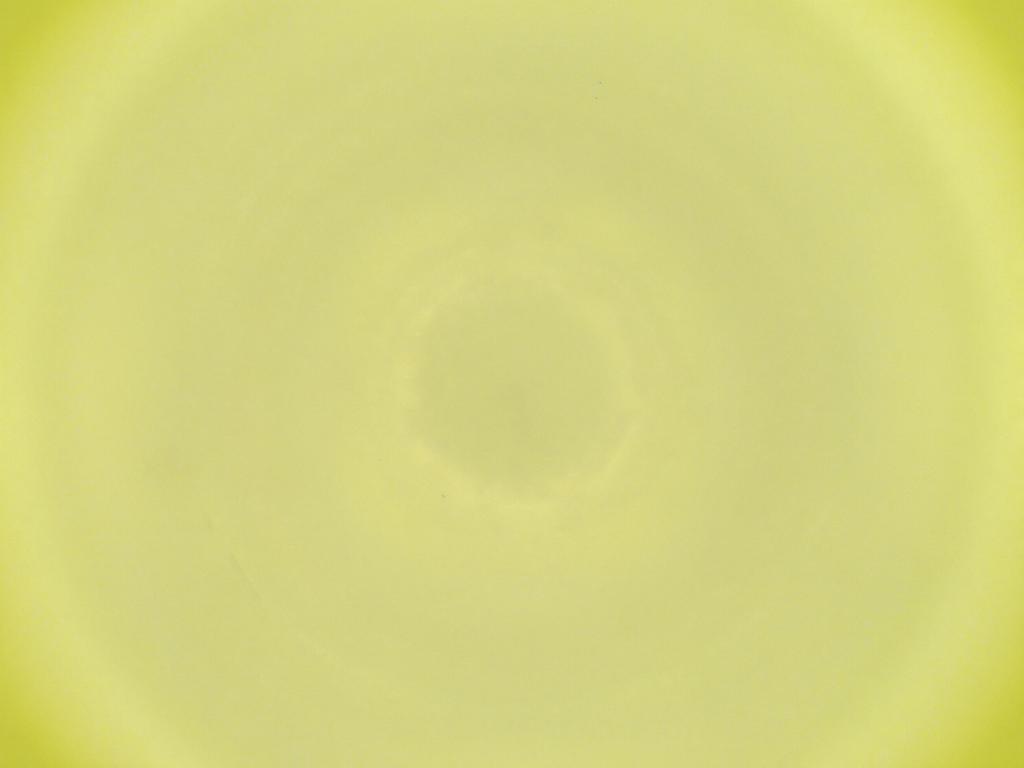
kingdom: Animalia
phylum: Arthropoda
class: Insecta
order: Diptera
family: Cecidomyiidae
